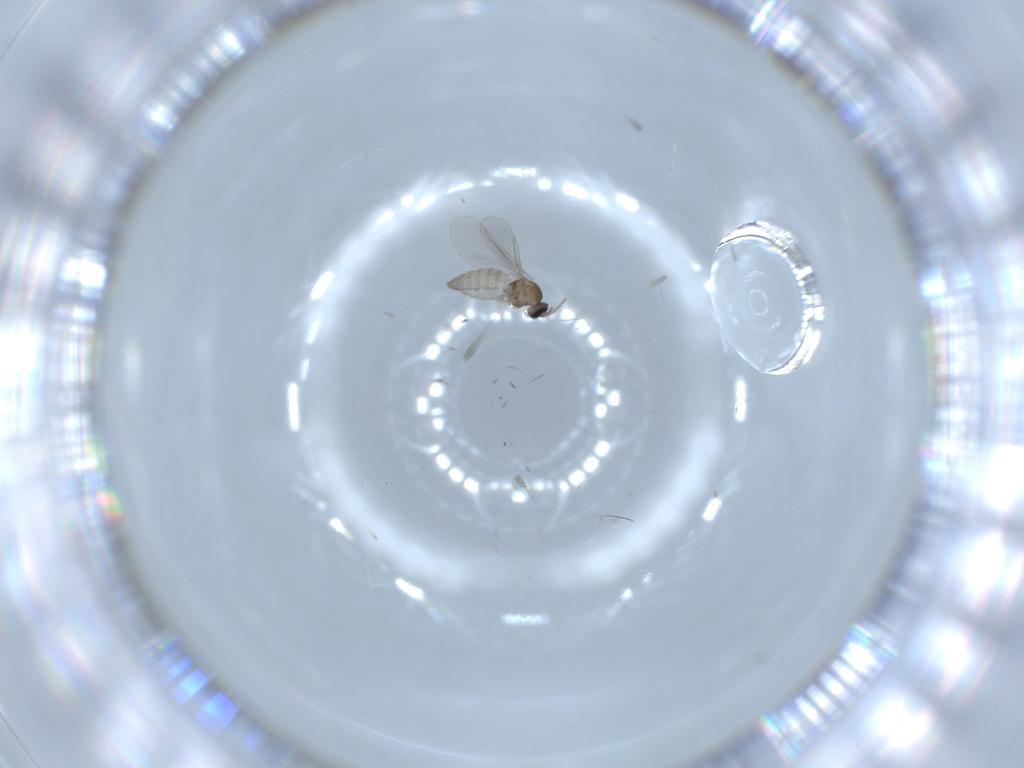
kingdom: Animalia
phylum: Arthropoda
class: Insecta
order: Diptera
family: Cecidomyiidae
